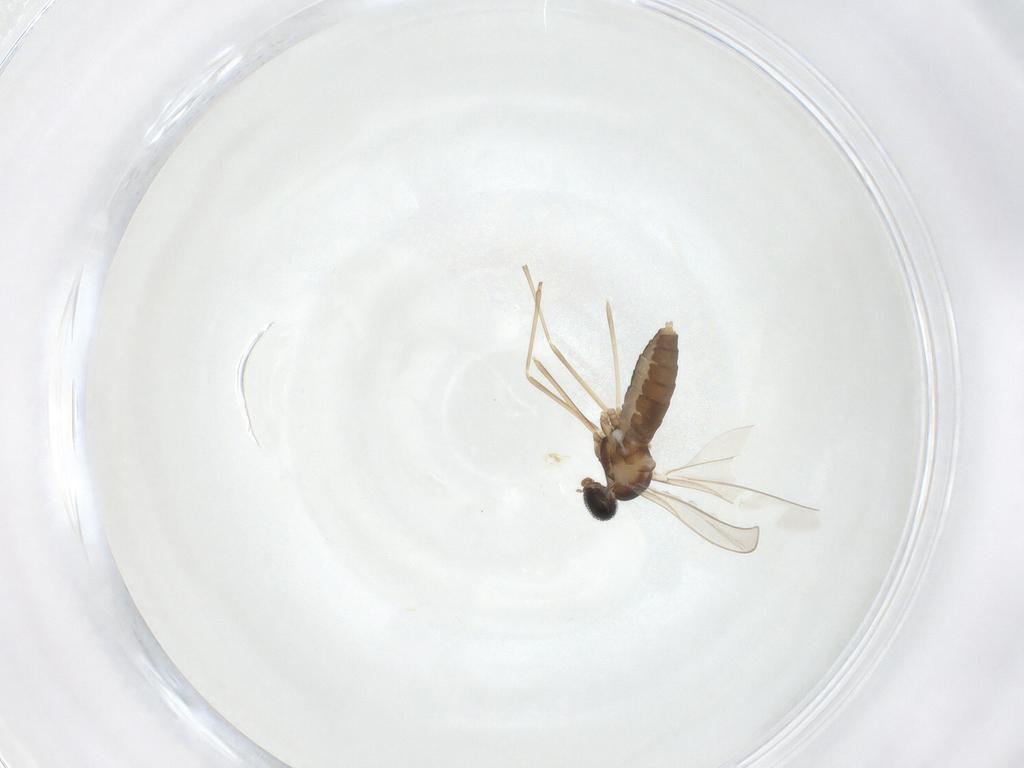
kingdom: Animalia
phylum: Arthropoda
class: Insecta
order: Diptera
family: Cecidomyiidae
